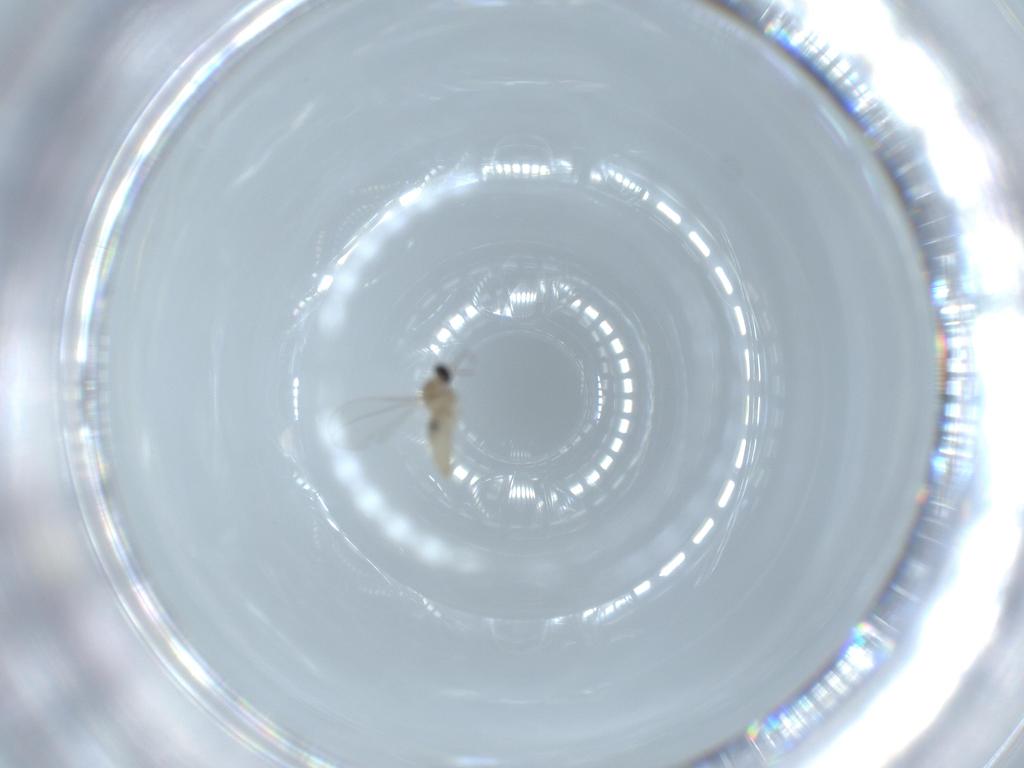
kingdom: Animalia
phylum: Arthropoda
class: Insecta
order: Diptera
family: Cecidomyiidae
